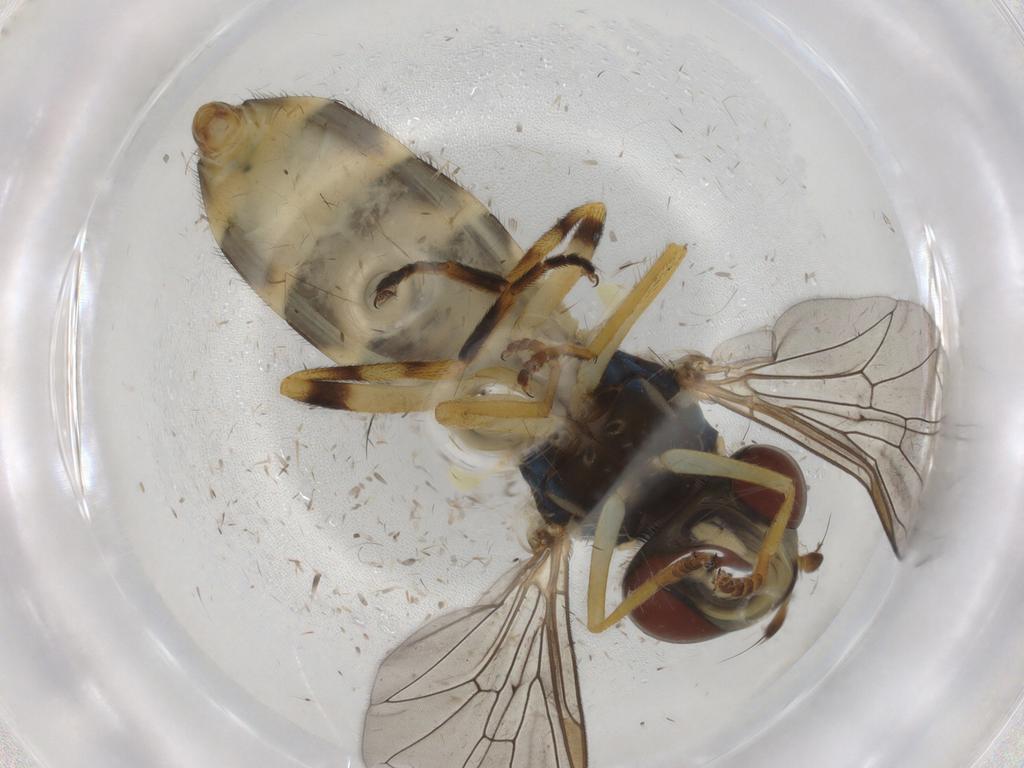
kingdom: Animalia
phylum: Arthropoda
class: Insecta
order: Diptera
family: Syrphidae
